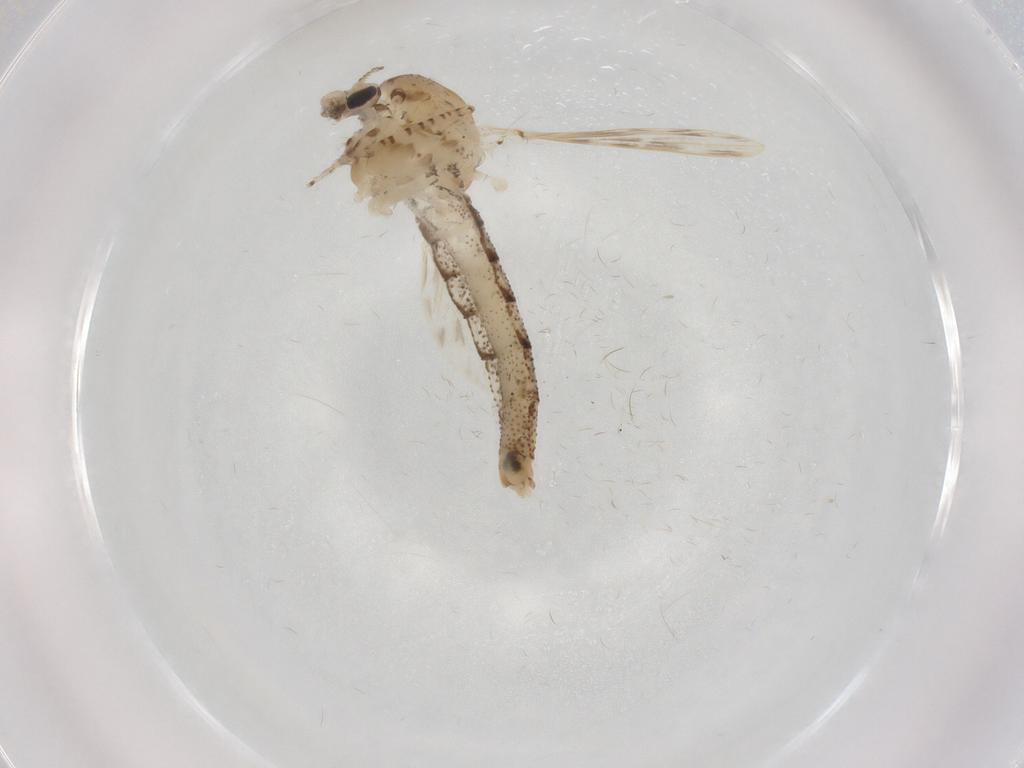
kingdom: Animalia
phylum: Arthropoda
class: Insecta
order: Diptera
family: Chaoboridae
